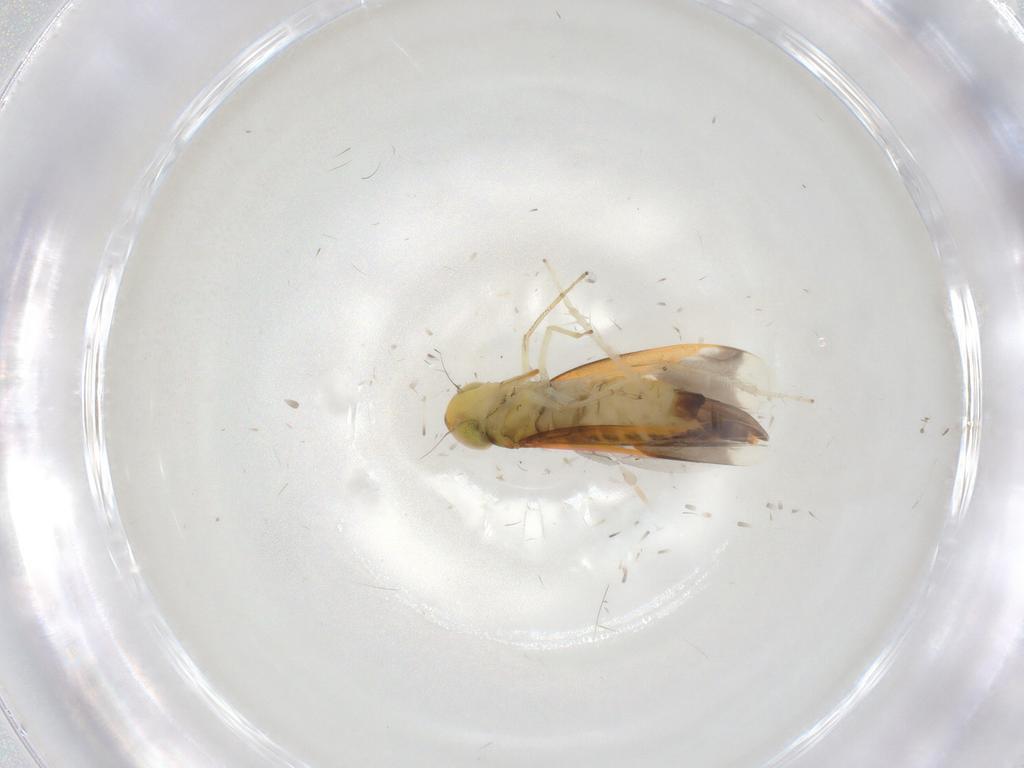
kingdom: Animalia
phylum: Arthropoda
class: Insecta
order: Hemiptera
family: Cicadellidae
